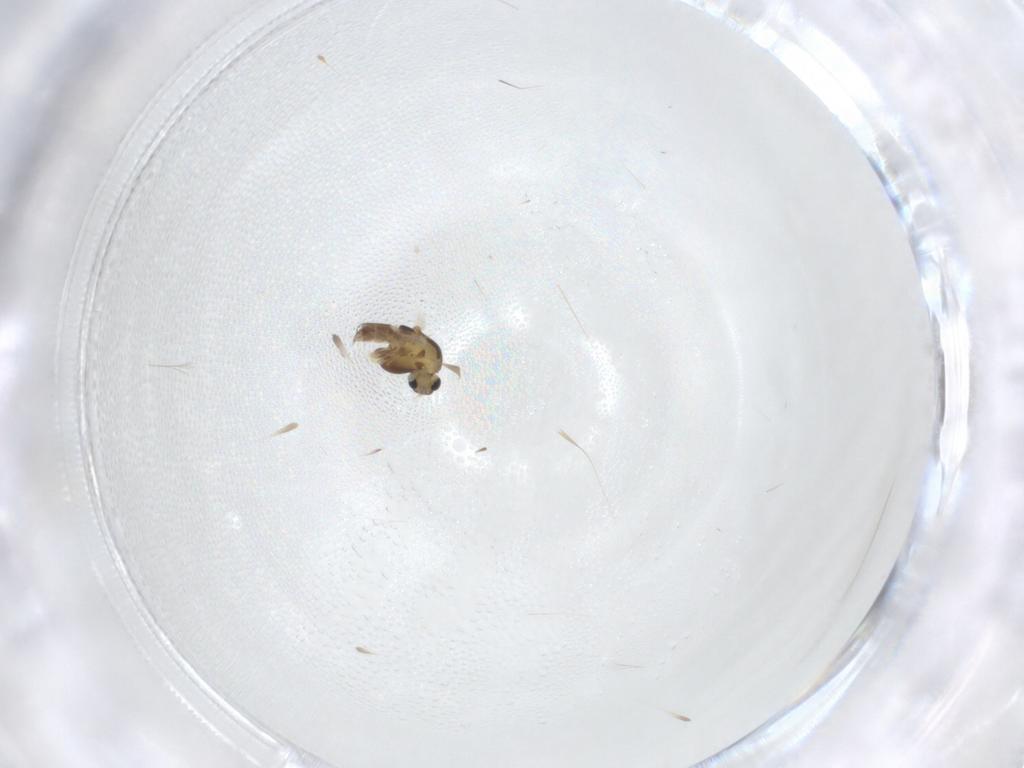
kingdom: Animalia
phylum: Arthropoda
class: Insecta
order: Diptera
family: Chironomidae
